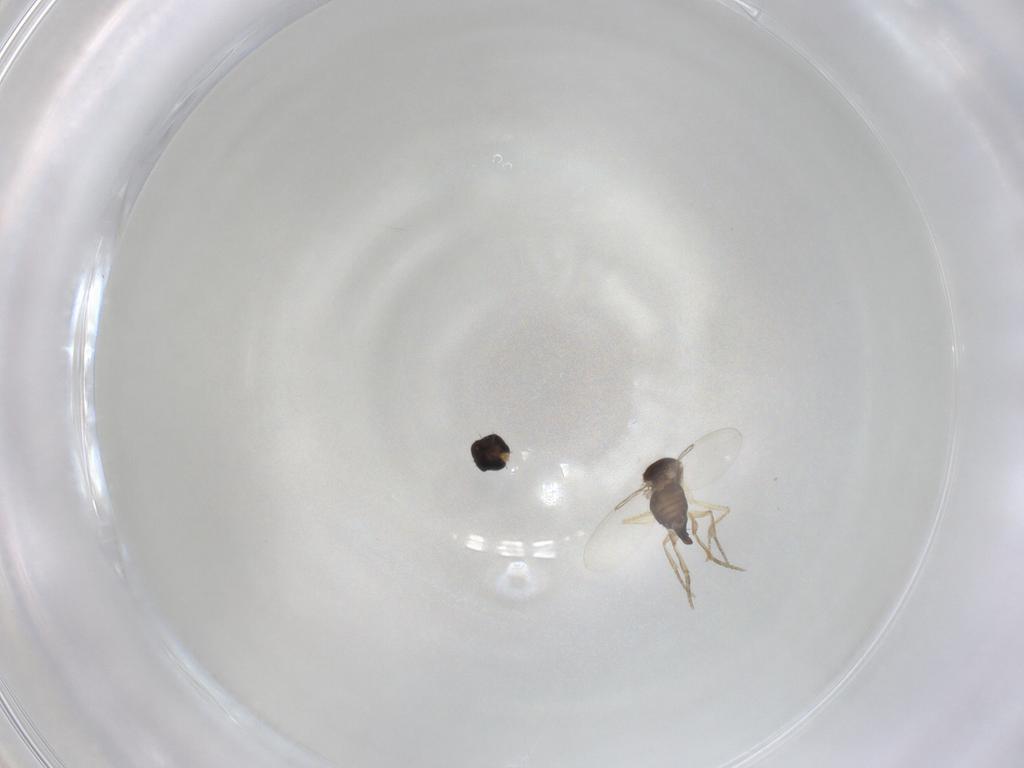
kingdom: Animalia
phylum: Arthropoda
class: Insecta
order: Diptera
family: Phoridae
